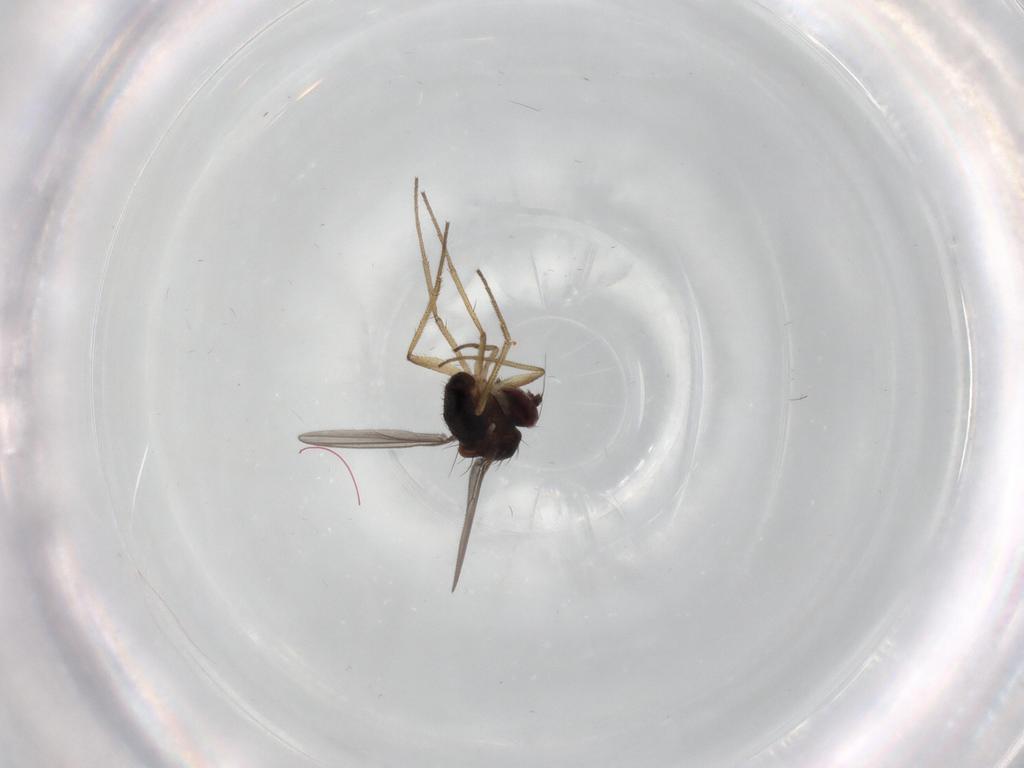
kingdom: Animalia
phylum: Arthropoda
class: Insecta
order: Diptera
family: Dolichopodidae
